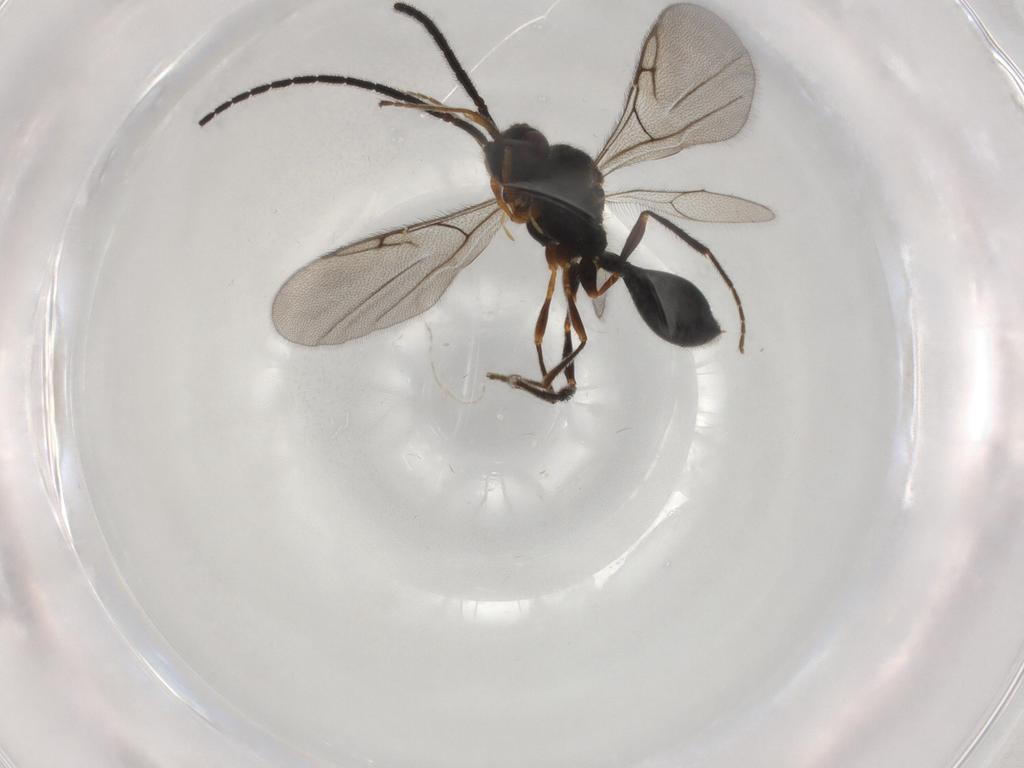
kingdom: Animalia
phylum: Arthropoda
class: Insecta
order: Hymenoptera
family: Diapriidae
